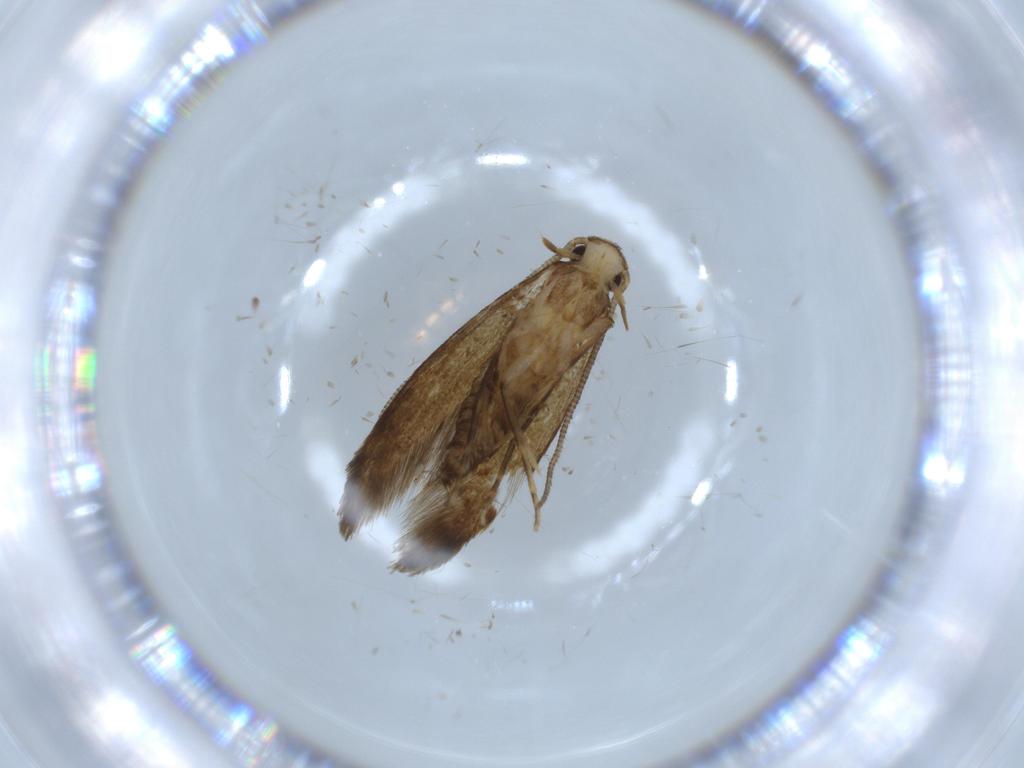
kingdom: Animalia
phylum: Arthropoda
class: Insecta
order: Lepidoptera
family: Tineidae
